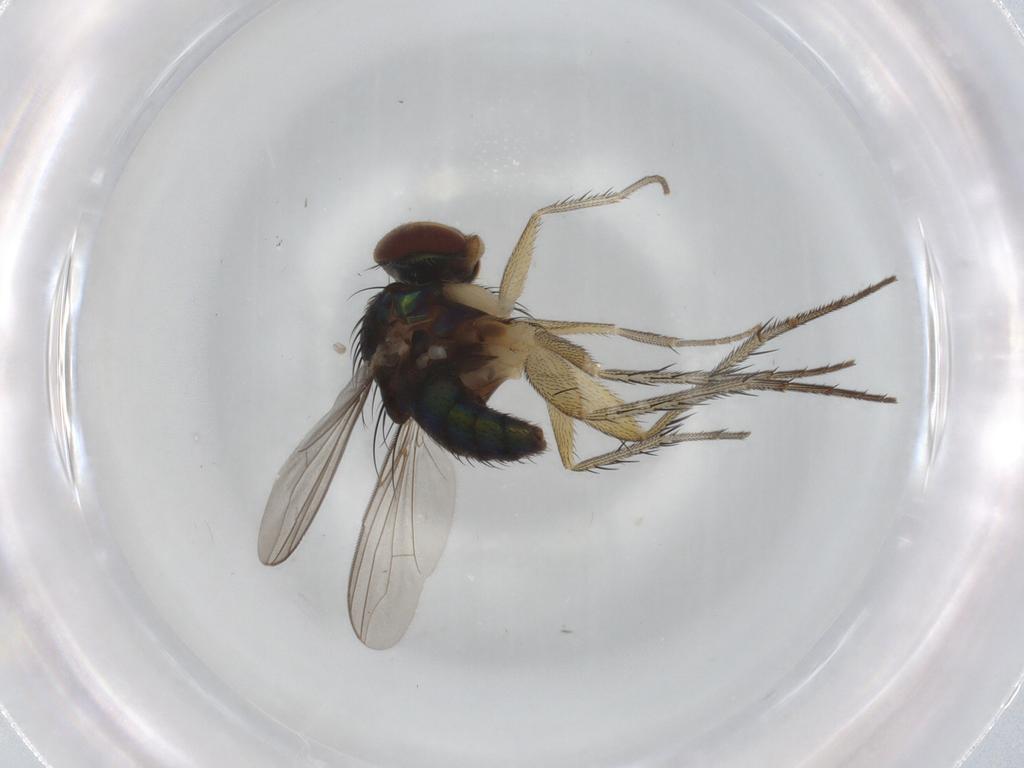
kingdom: Animalia
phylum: Arthropoda
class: Insecta
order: Diptera
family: Dolichopodidae
